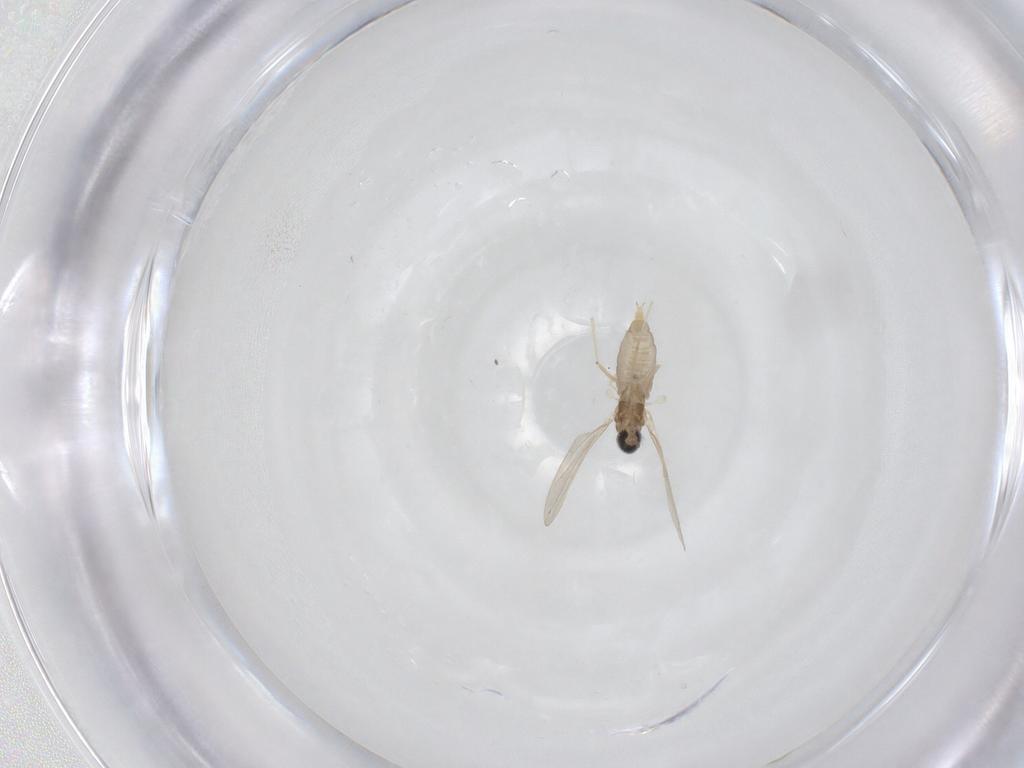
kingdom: Animalia
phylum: Arthropoda
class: Insecta
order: Diptera
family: Cecidomyiidae
